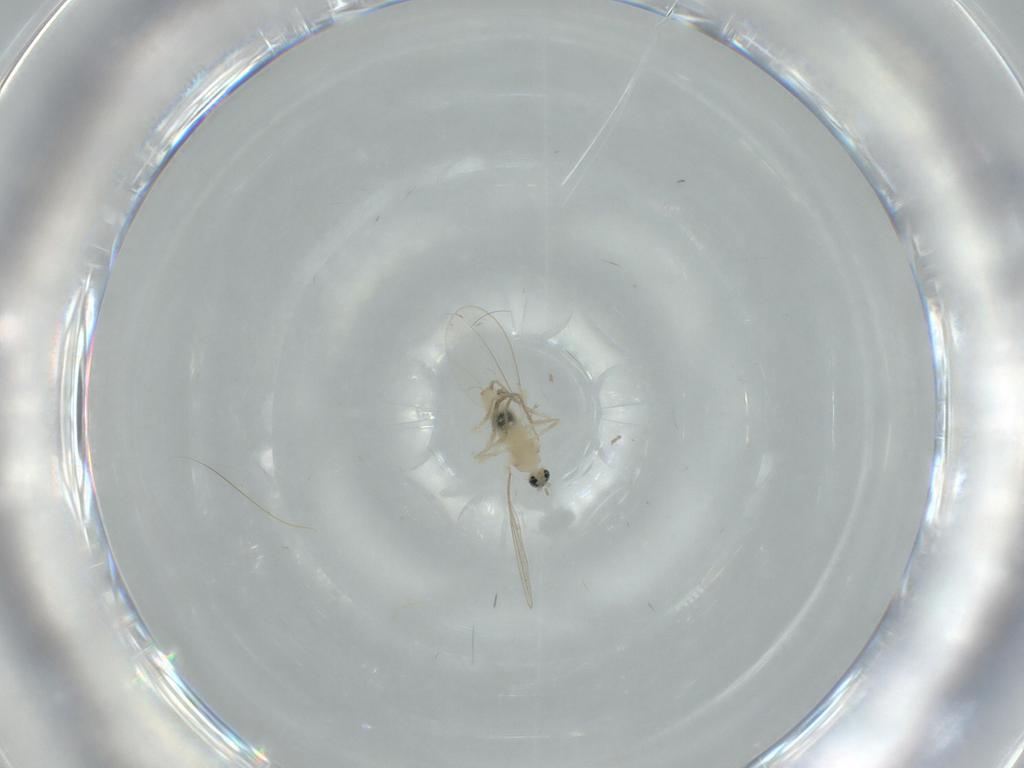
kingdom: Animalia
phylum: Arthropoda
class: Insecta
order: Diptera
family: Cecidomyiidae
